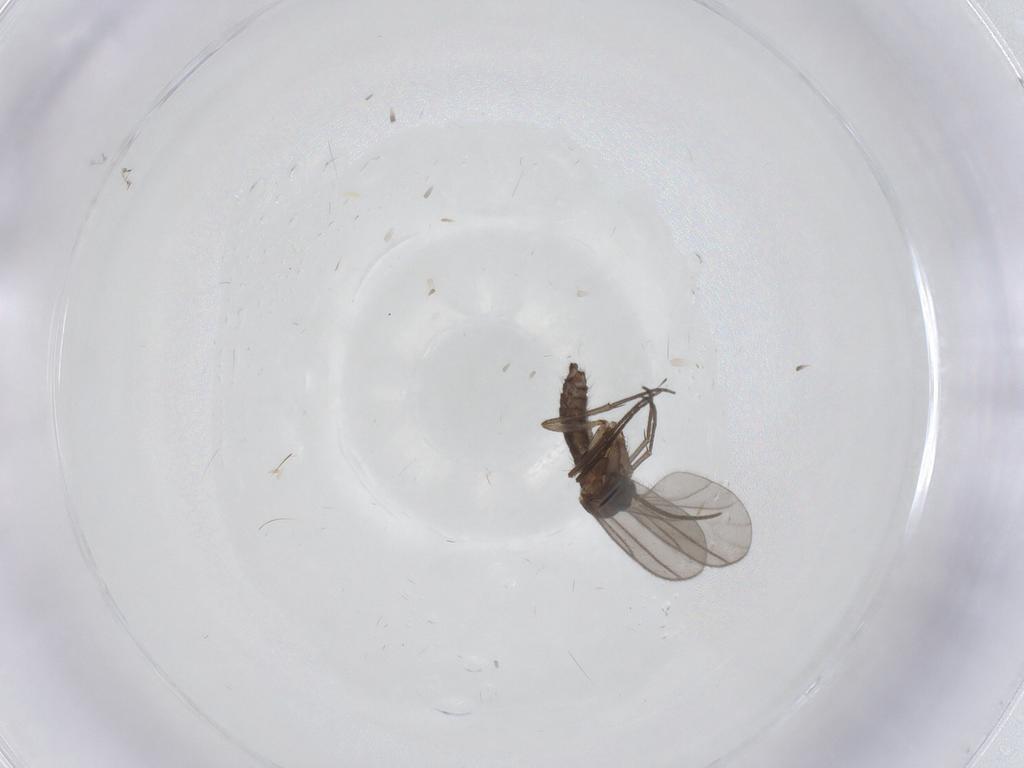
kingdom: Animalia
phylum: Arthropoda
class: Insecta
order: Diptera
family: Sciaridae
